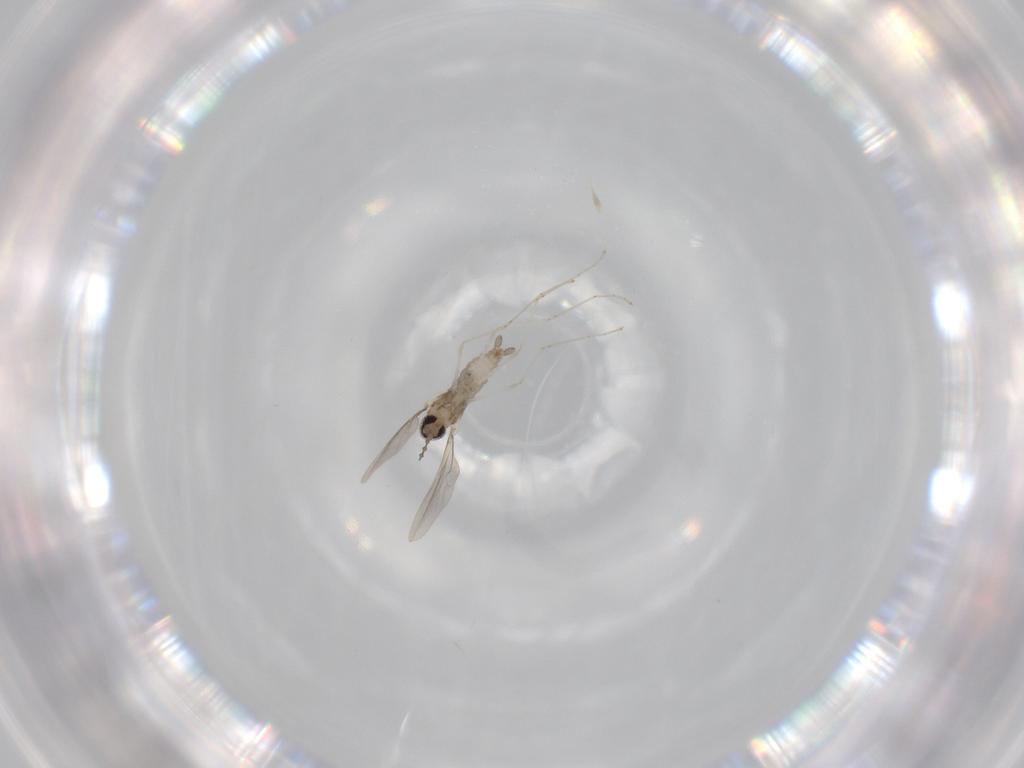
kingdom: Animalia
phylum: Arthropoda
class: Insecta
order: Diptera
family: Cecidomyiidae
